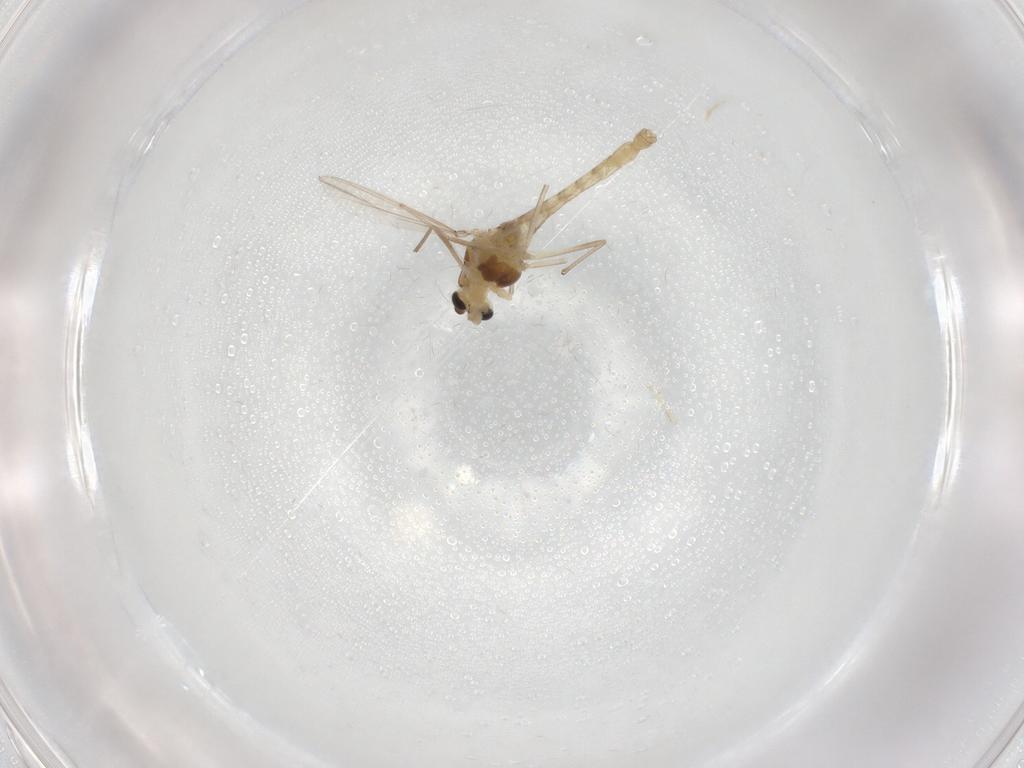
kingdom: Animalia
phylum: Arthropoda
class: Insecta
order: Diptera
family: Chironomidae
